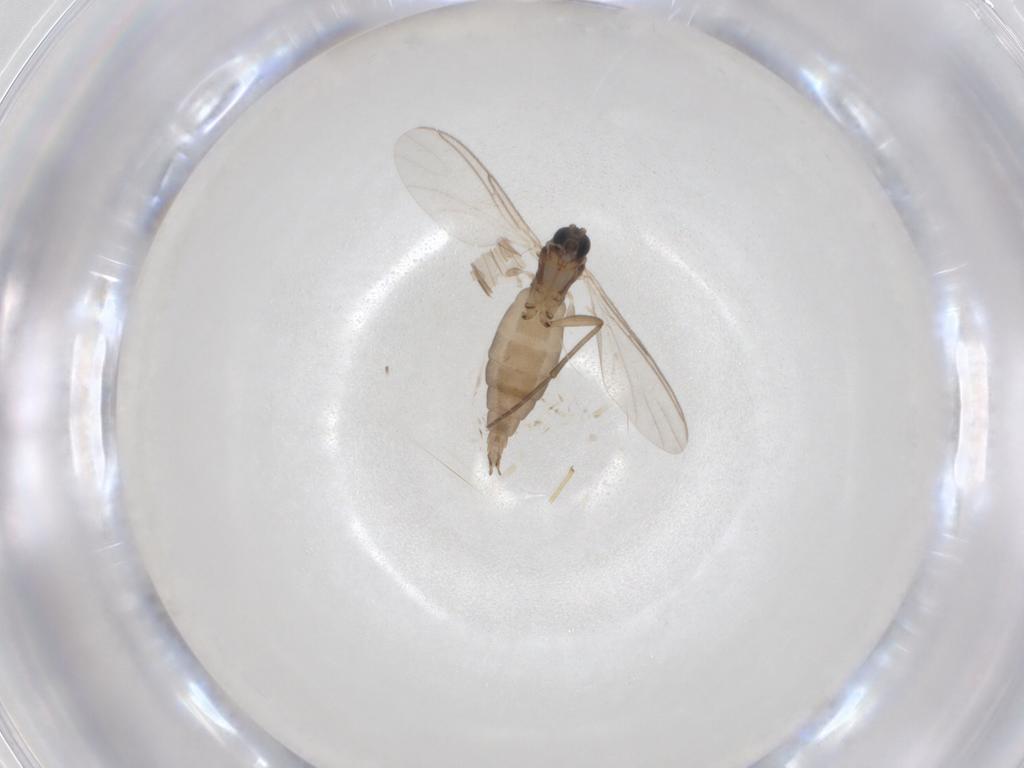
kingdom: Animalia
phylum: Arthropoda
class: Insecta
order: Diptera
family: Sciaridae
